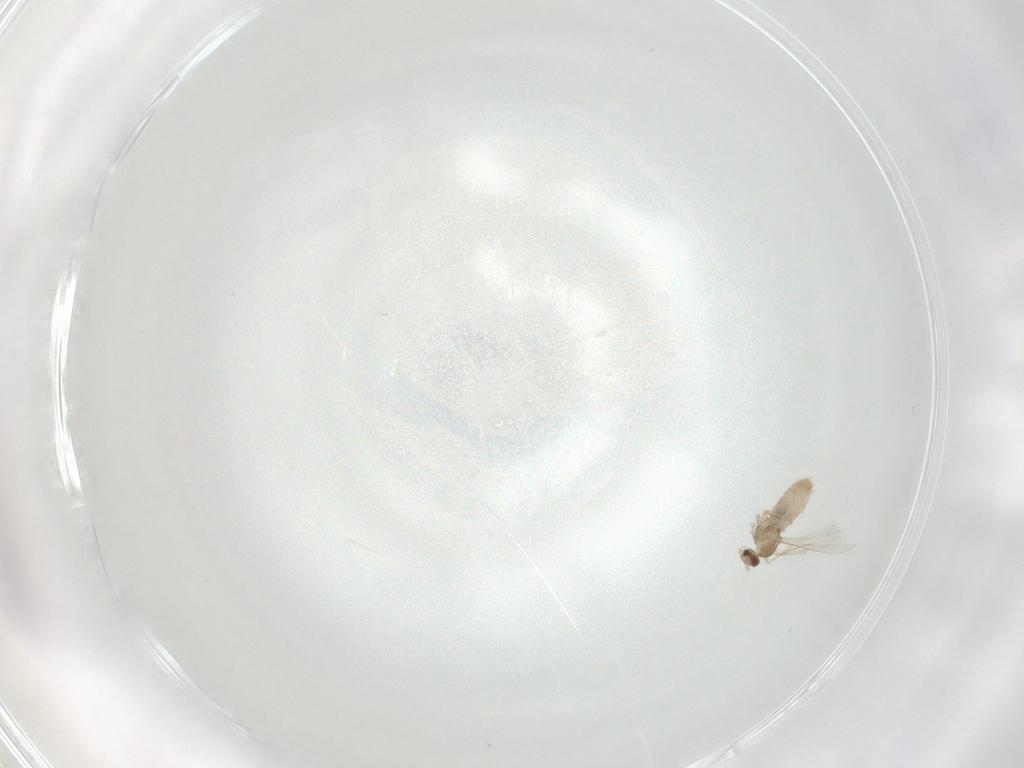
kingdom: Animalia
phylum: Arthropoda
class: Insecta
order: Diptera
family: Cecidomyiidae
